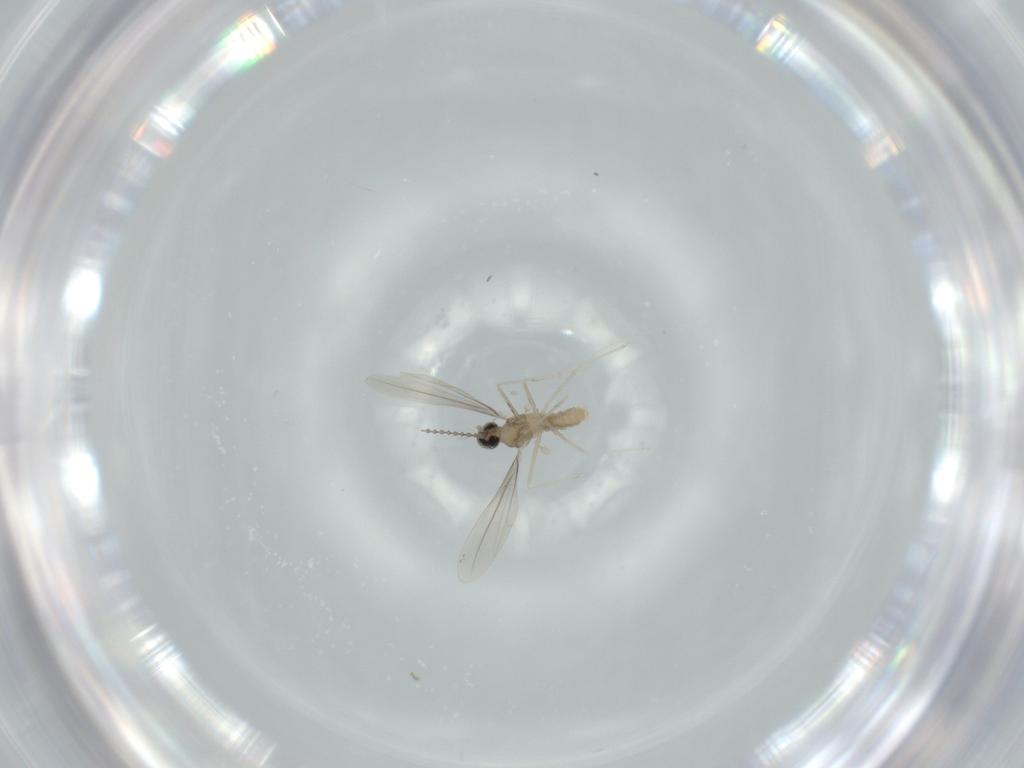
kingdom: Animalia
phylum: Arthropoda
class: Insecta
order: Diptera
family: Cecidomyiidae
